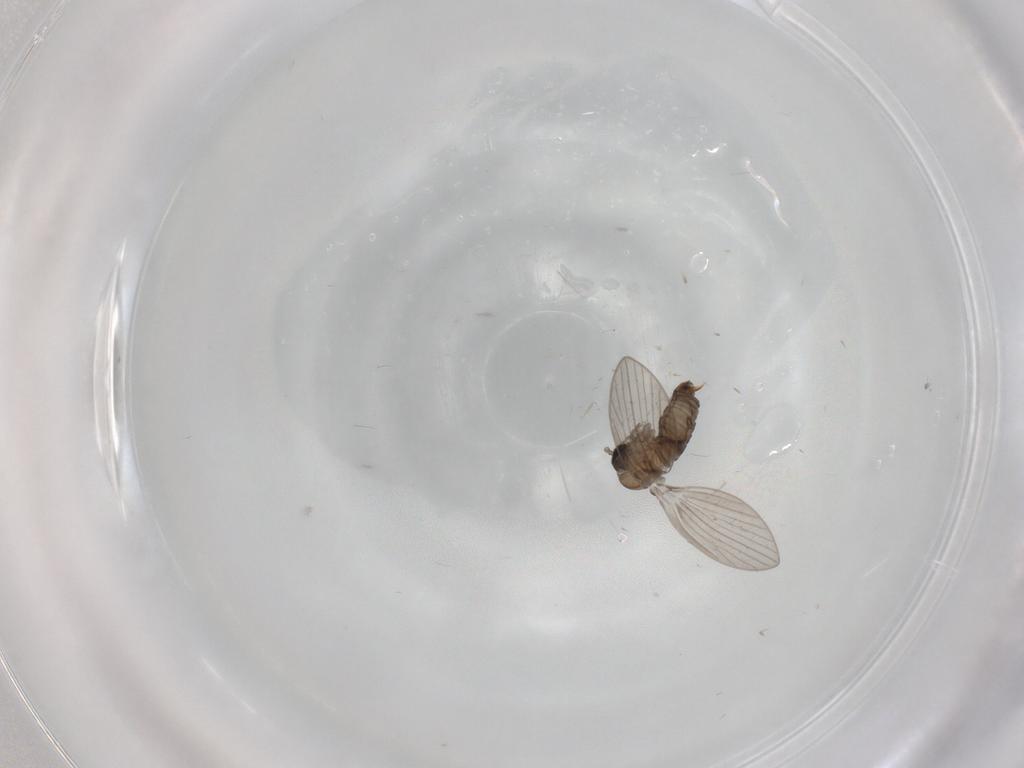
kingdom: Animalia
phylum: Arthropoda
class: Insecta
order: Diptera
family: Psychodidae
